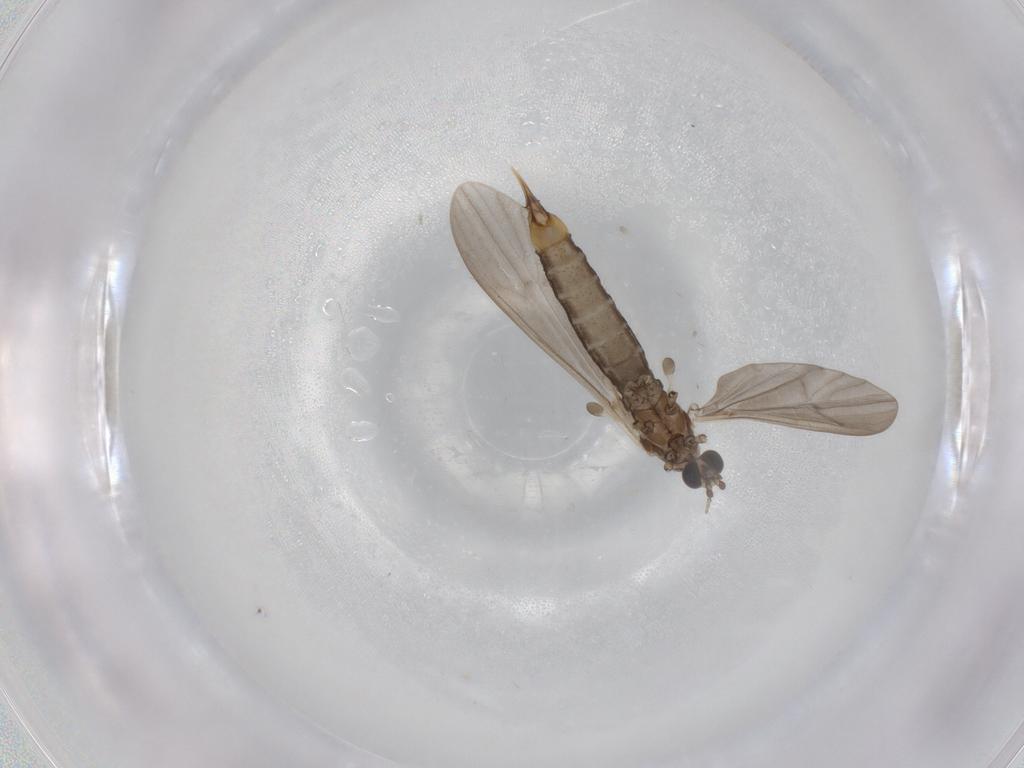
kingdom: Animalia
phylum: Arthropoda
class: Insecta
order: Diptera
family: Limoniidae
